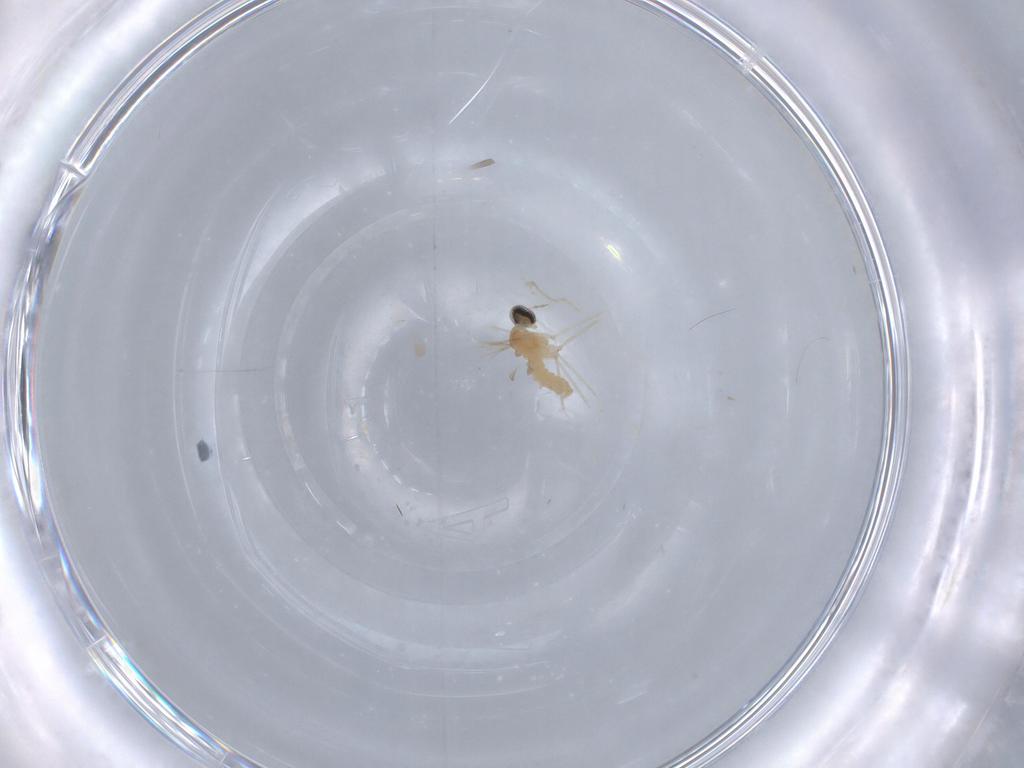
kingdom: Animalia
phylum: Arthropoda
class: Insecta
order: Diptera
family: Cecidomyiidae
